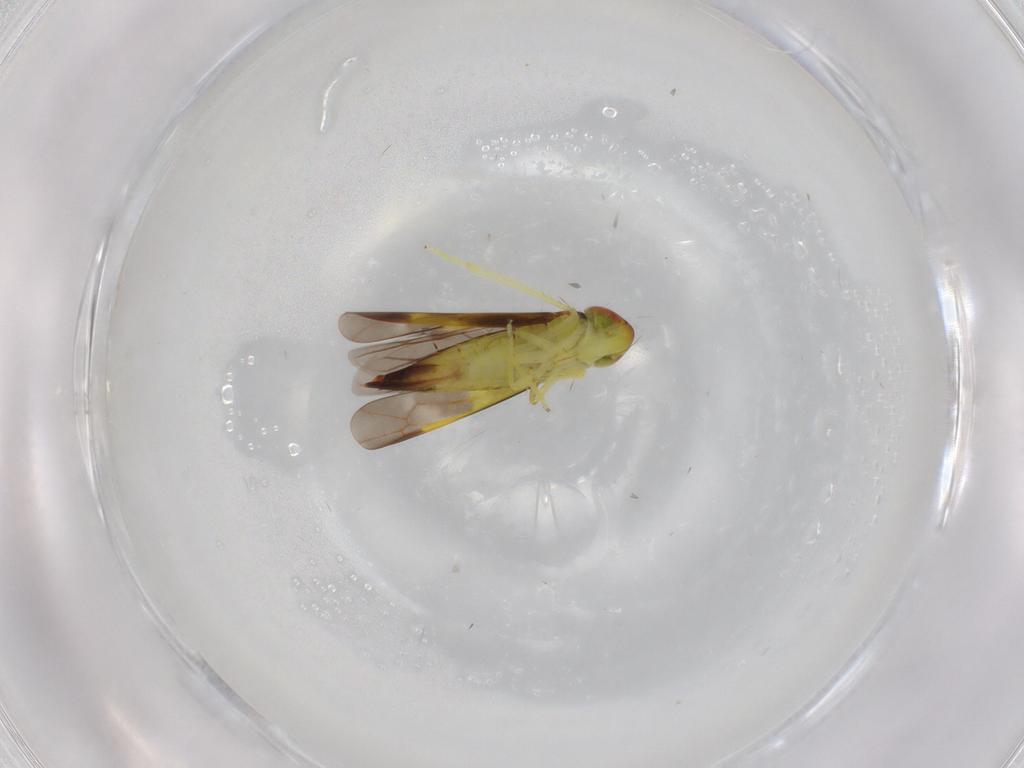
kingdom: Animalia
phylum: Arthropoda
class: Insecta
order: Hemiptera
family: Cicadellidae
